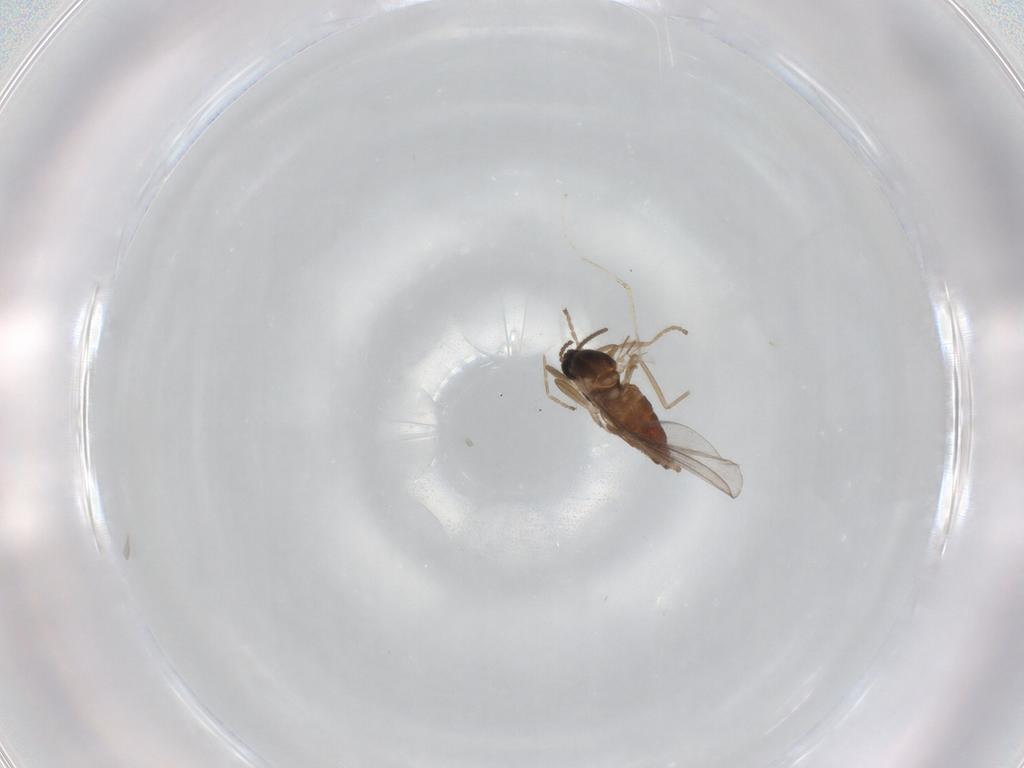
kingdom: Animalia
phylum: Arthropoda
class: Insecta
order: Diptera
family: Cecidomyiidae
